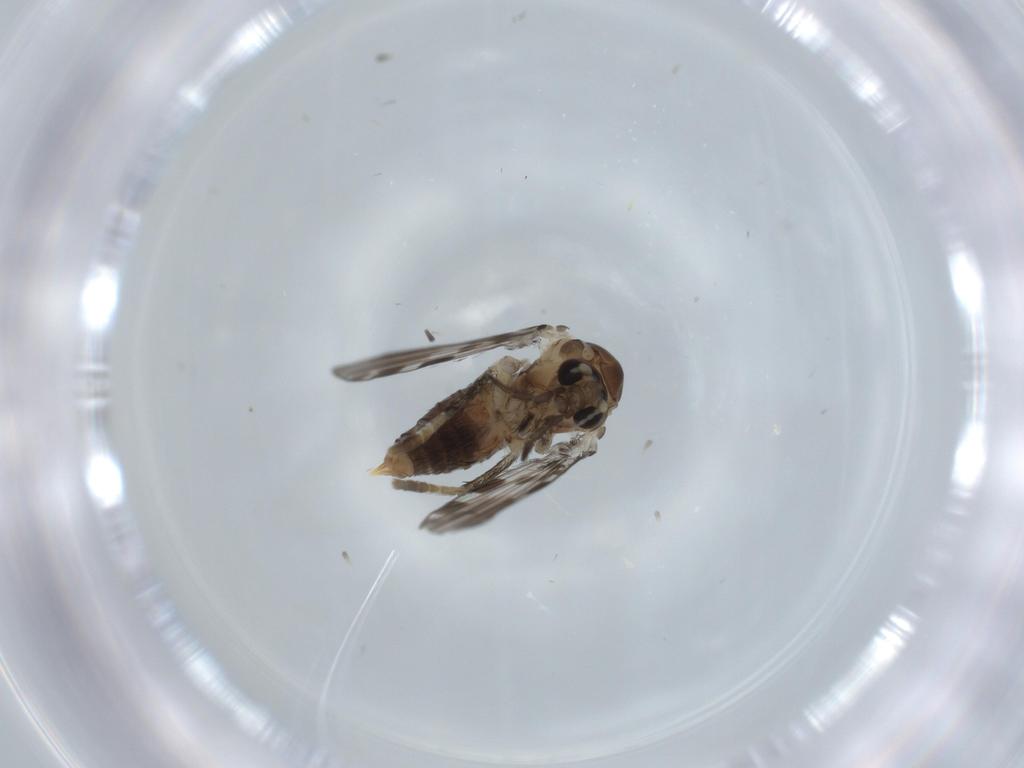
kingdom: Animalia
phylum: Arthropoda
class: Insecta
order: Diptera
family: Psychodidae
